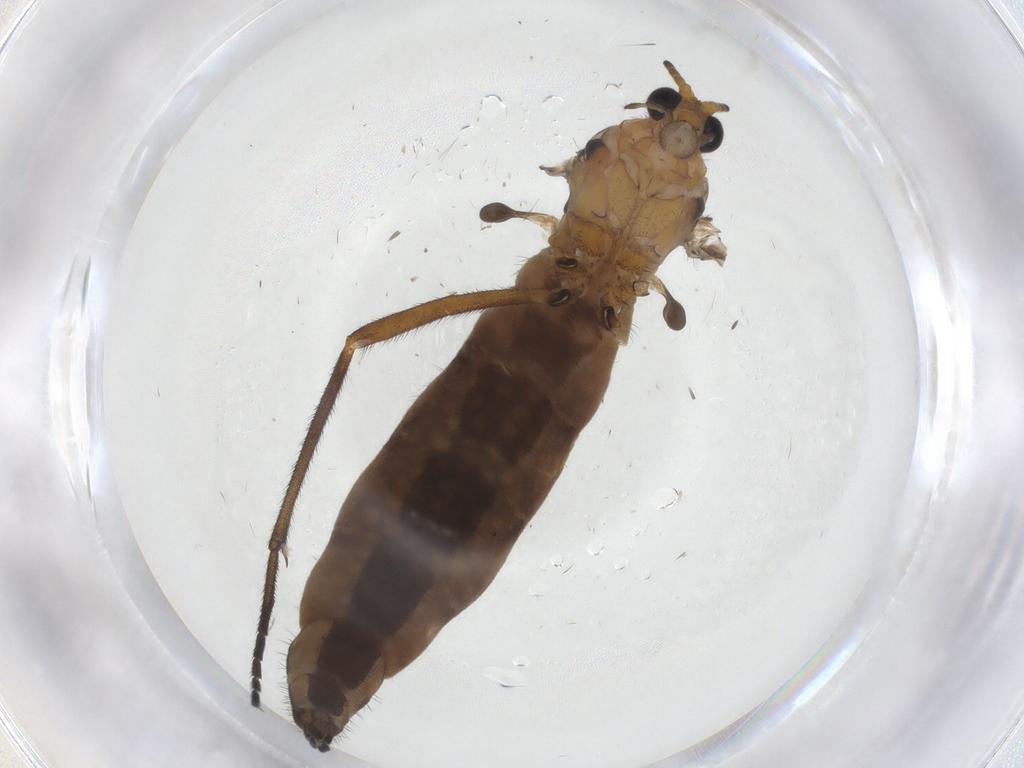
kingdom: Animalia
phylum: Arthropoda
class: Insecta
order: Diptera
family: Sciaridae
